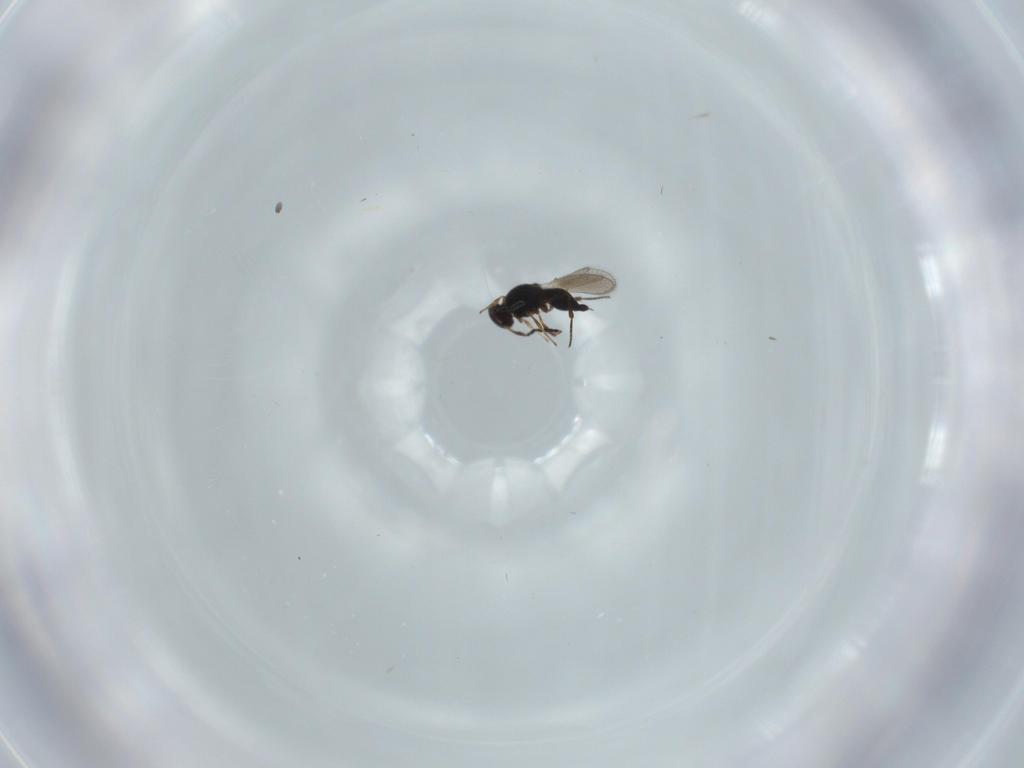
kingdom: Animalia
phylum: Arthropoda
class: Insecta
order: Hymenoptera
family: Platygastridae
